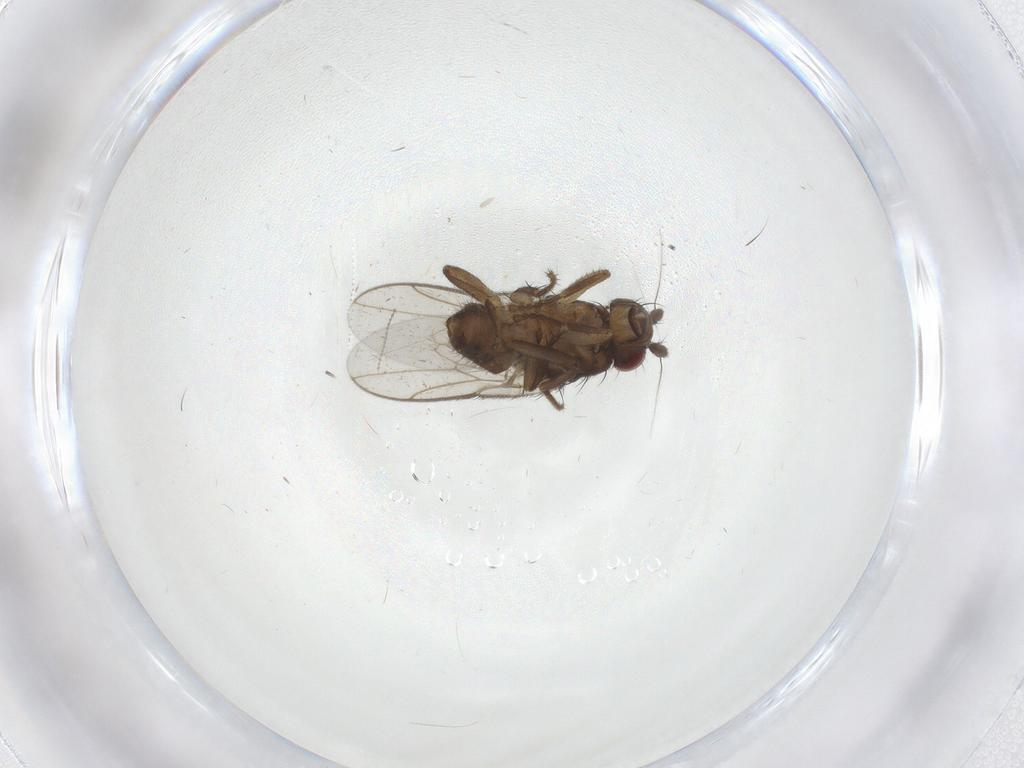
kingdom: Animalia
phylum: Arthropoda
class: Insecta
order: Diptera
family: Sphaeroceridae
